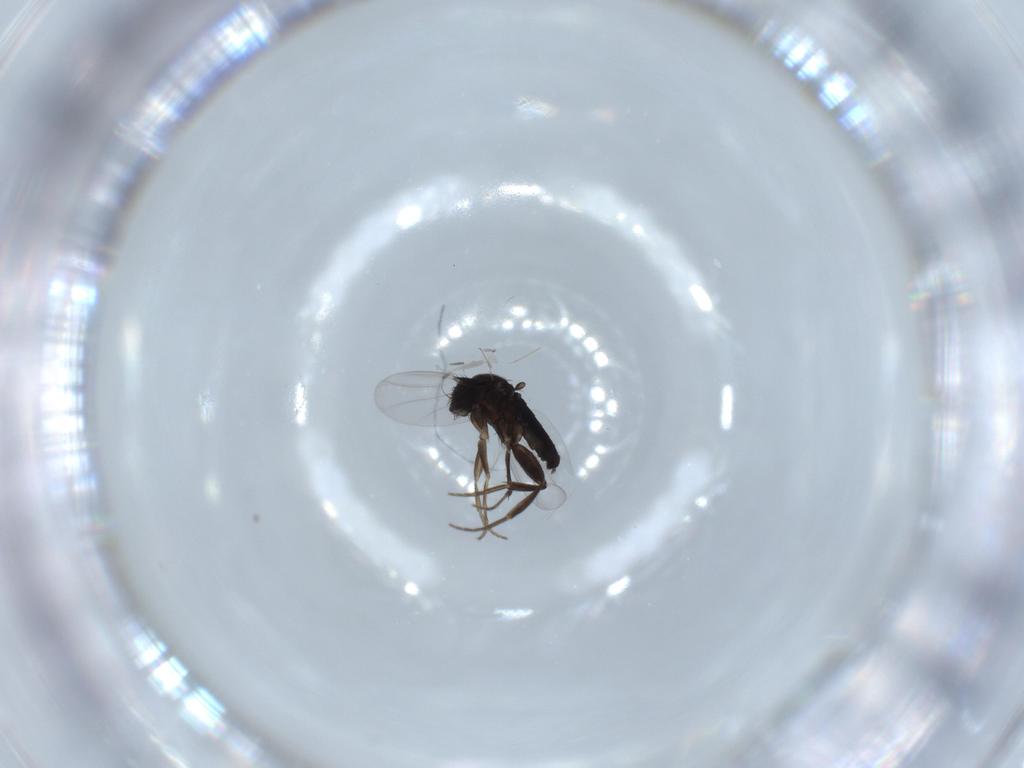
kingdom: Animalia
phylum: Arthropoda
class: Insecta
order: Diptera
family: Phoridae
